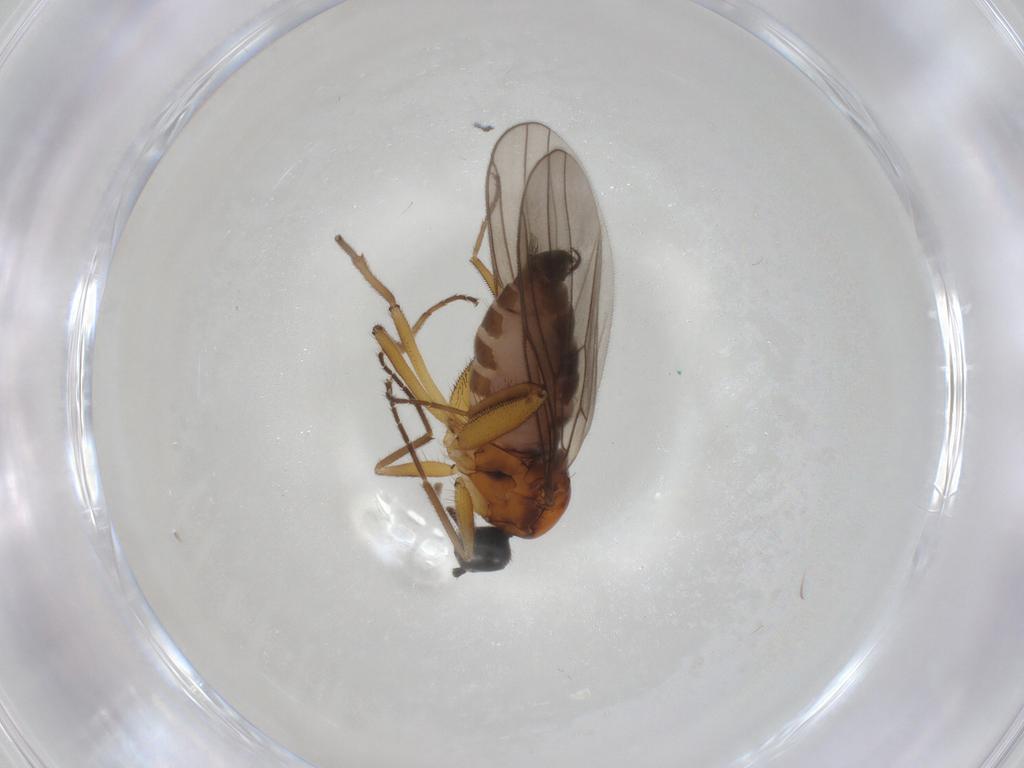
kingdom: Animalia
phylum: Arthropoda
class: Insecta
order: Diptera
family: Hybotidae
